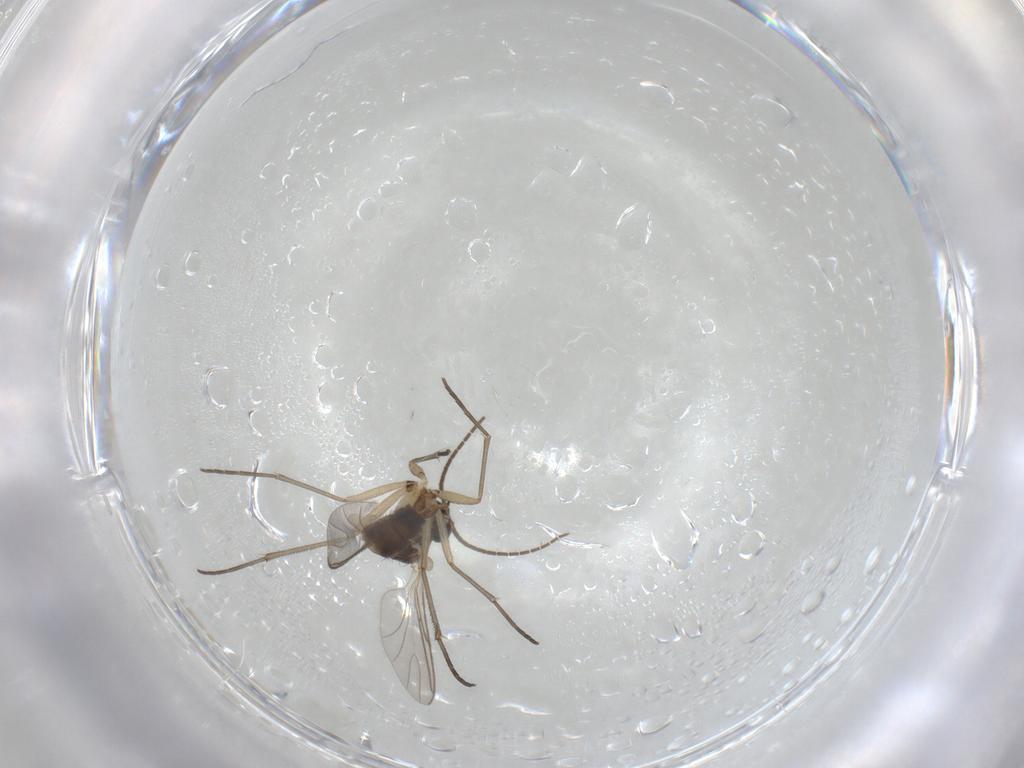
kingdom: Animalia
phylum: Arthropoda
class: Insecta
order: Diptera
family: Sciaridae
